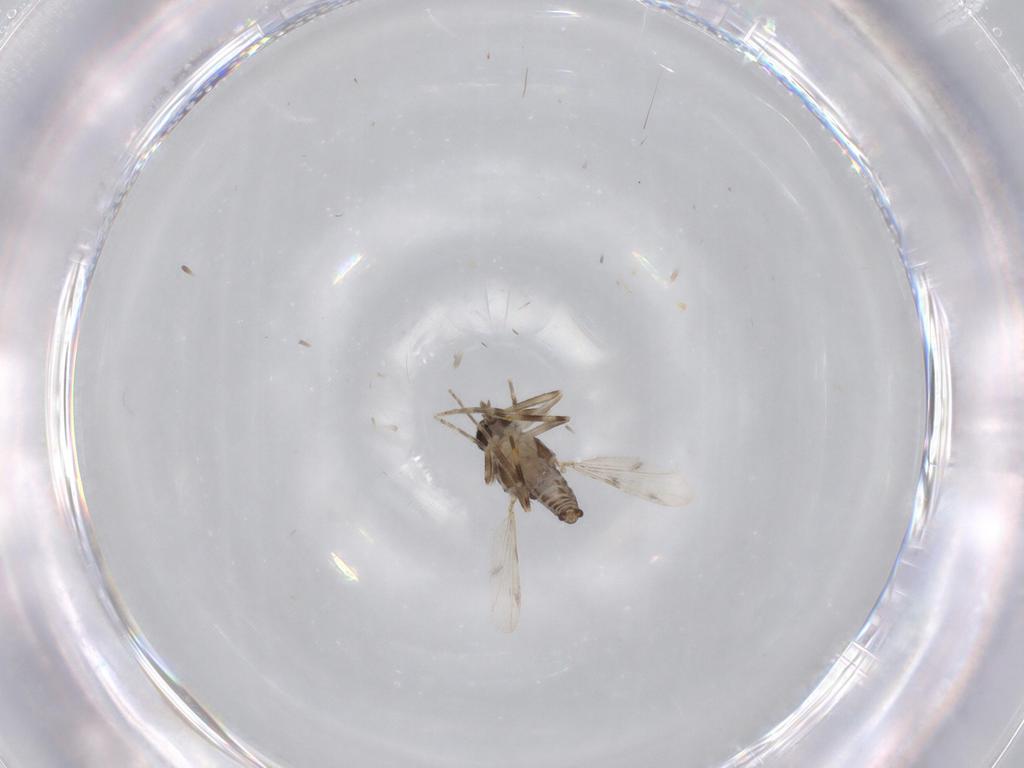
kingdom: Animalia
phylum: Arthropoda
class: Insecta
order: Diptera
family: Ceratopogonidae
